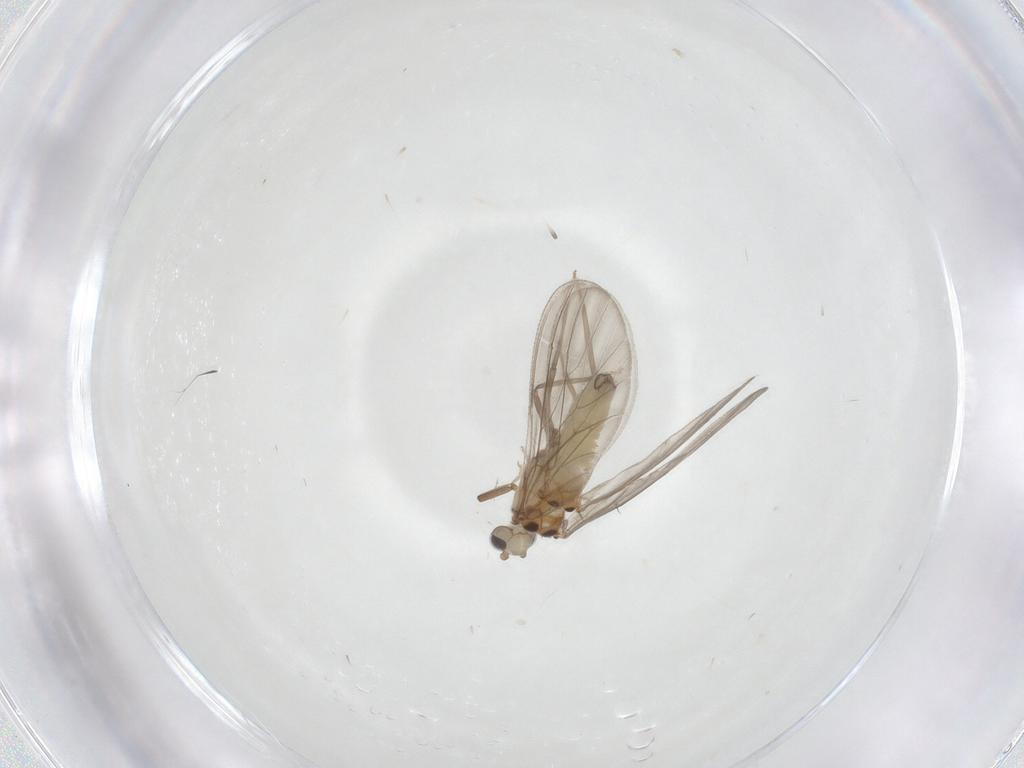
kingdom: Animalia
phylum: Arthropoda
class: Insecta
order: Neuroptera
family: Coniopterygidae
